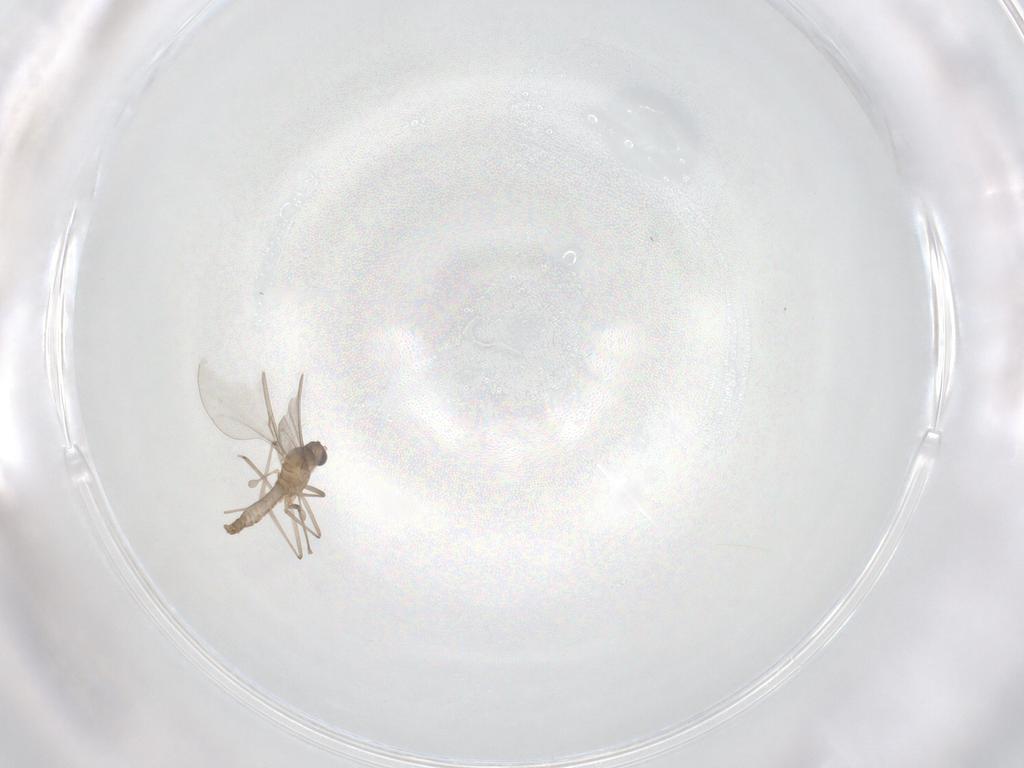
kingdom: Animalia
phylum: Arthropoda
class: Insecta
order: Diptera
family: Cecidomyiidae
